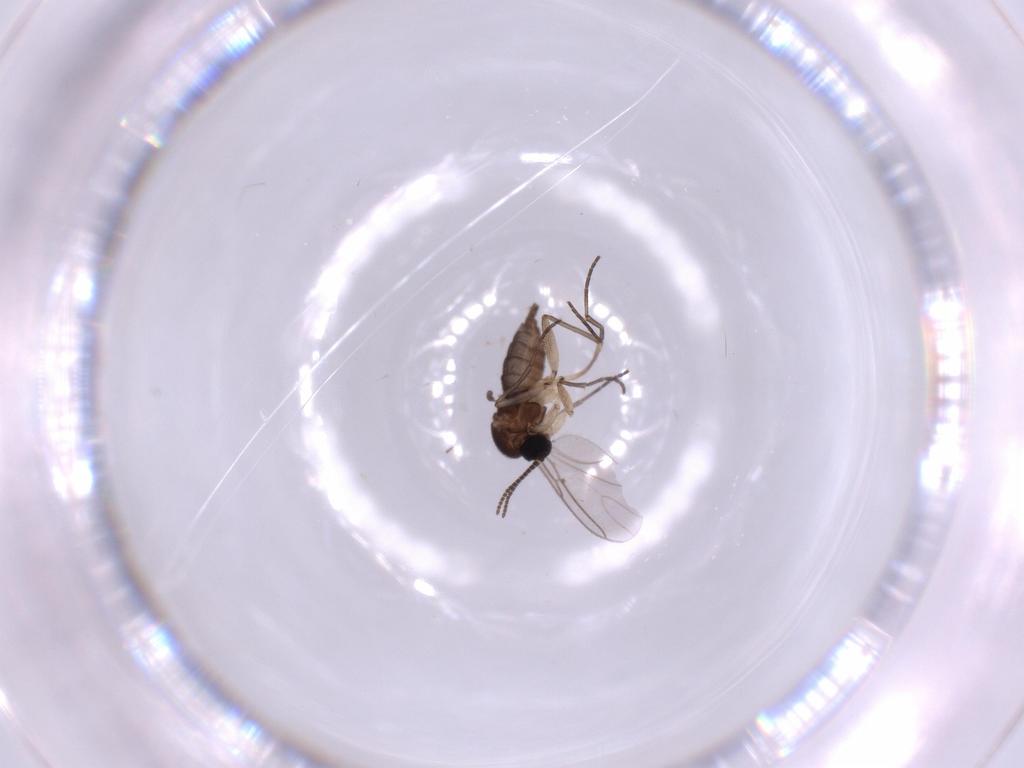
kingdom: Animalia
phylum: Arthropoda
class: Insecta
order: Diptera
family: Sciaridae
